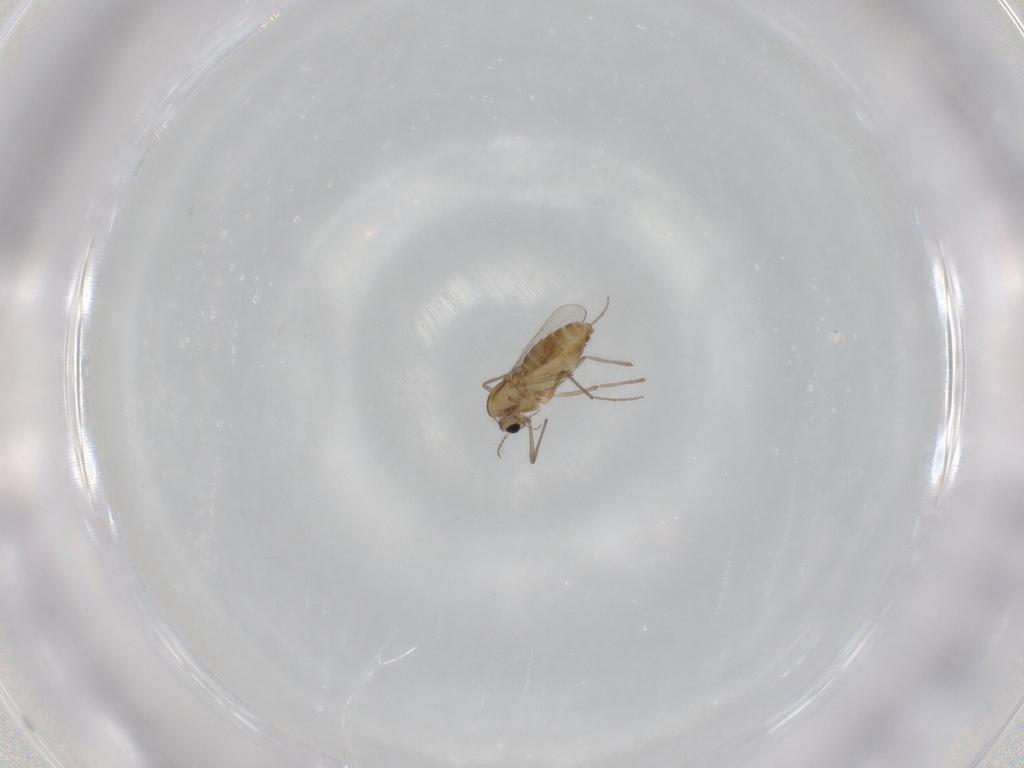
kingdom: Animalia
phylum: Arthropoda
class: Insecta
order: Diptera
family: Chironomidae
